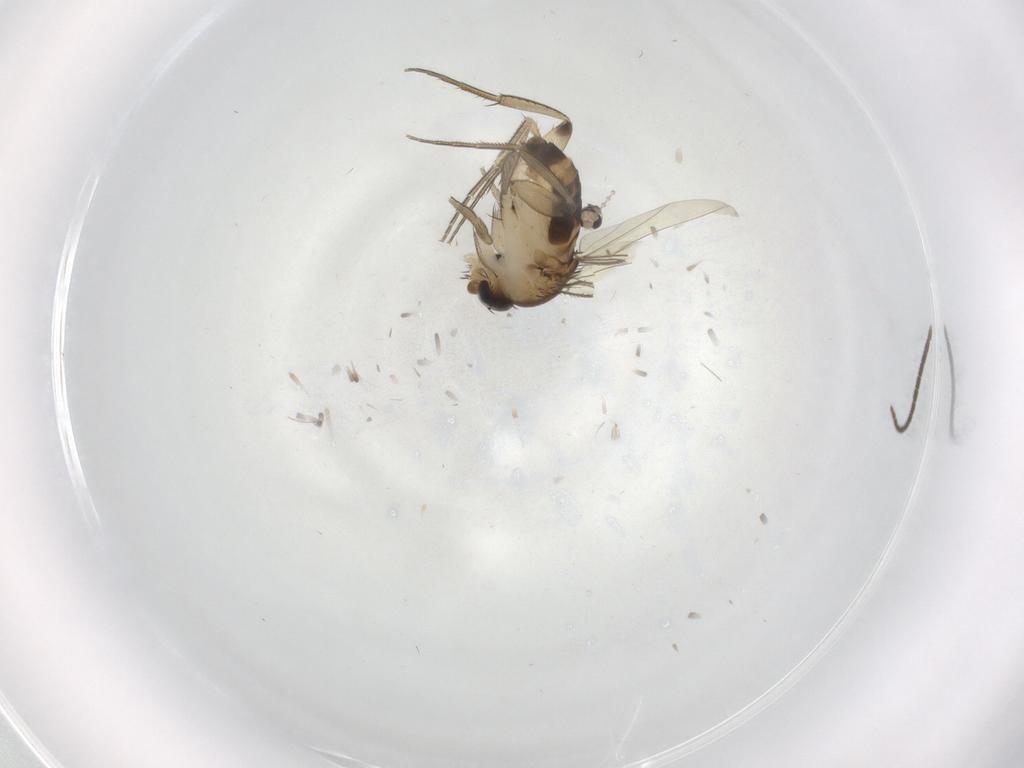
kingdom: Animalia
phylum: Arthropoda
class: Insecta
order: Diptera
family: Cecidomyiidae
